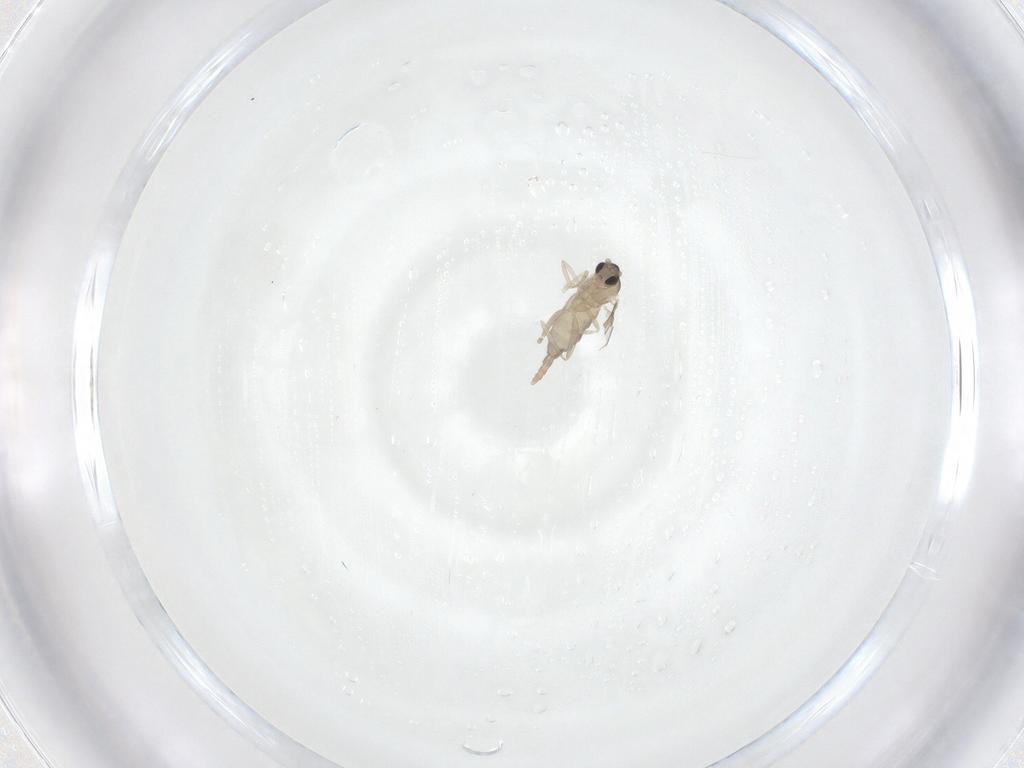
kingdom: Animalia
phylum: Arthropoda
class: Insecta
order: Diptera
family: Cecidomyiidae
